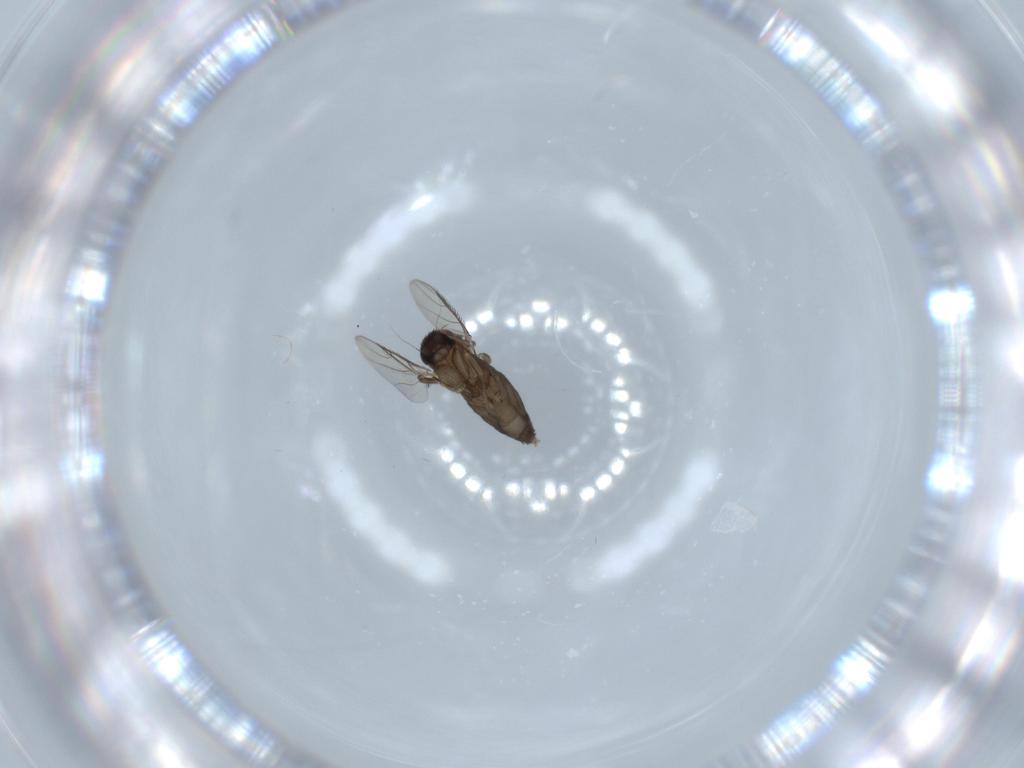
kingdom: Animalia
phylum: Arthropoda
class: Insecta
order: Diptera
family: Phoridae
